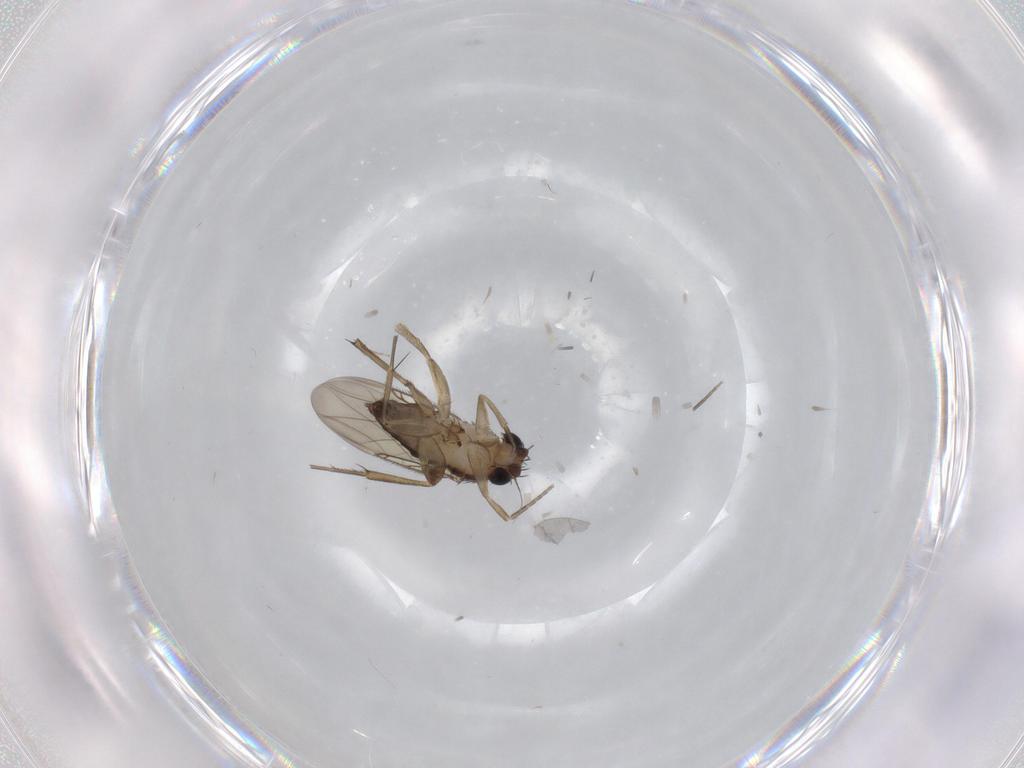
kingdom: Animalia
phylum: Arthropoda
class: Insecta
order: Diptera
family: Phoridae
